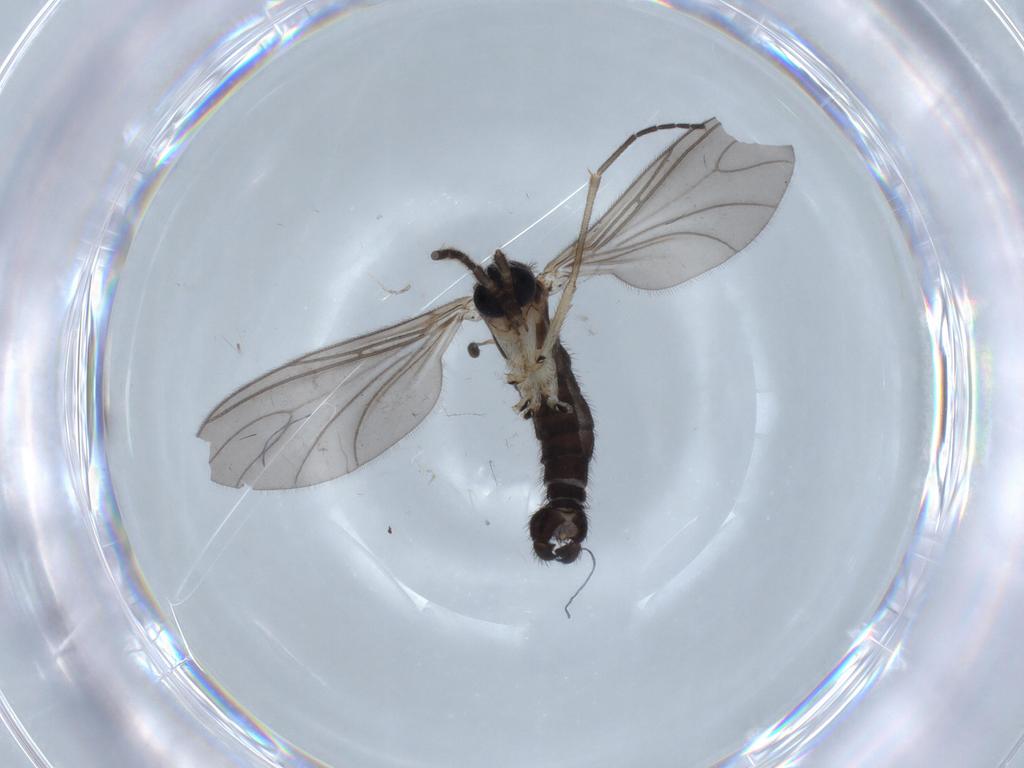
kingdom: Animalia
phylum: Arthropoda
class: Insecta
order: Diptera
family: Sciaridae
